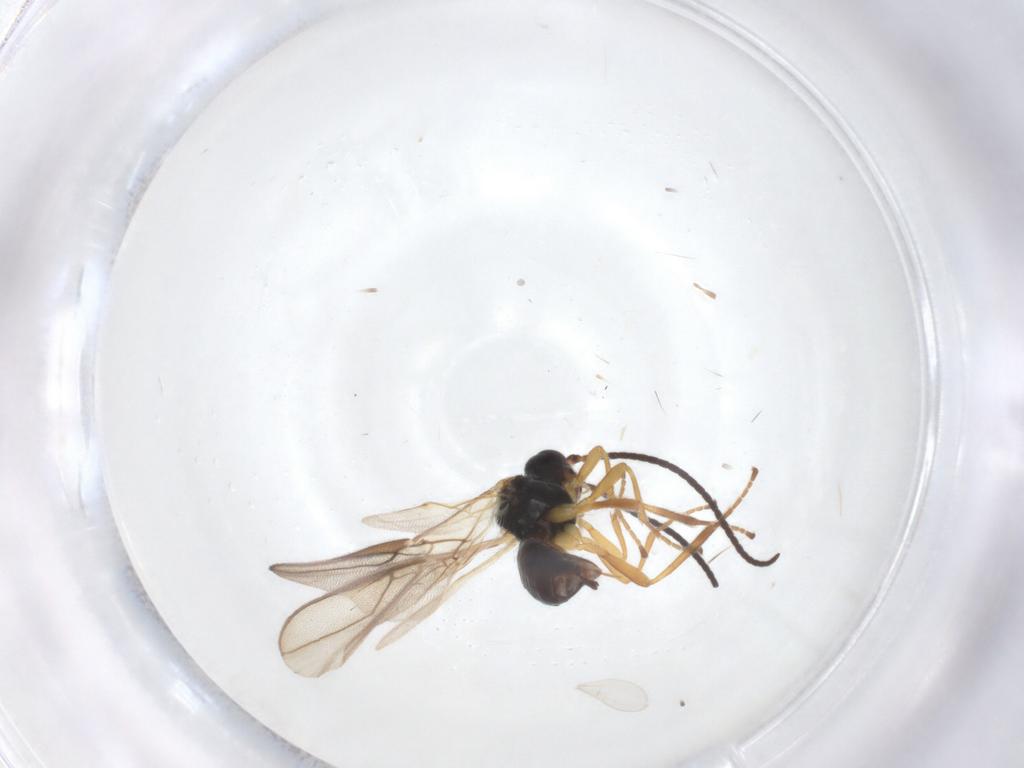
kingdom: Animalia
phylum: Arthropoda
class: Insecta
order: Hymenoptera
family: Braconidae
